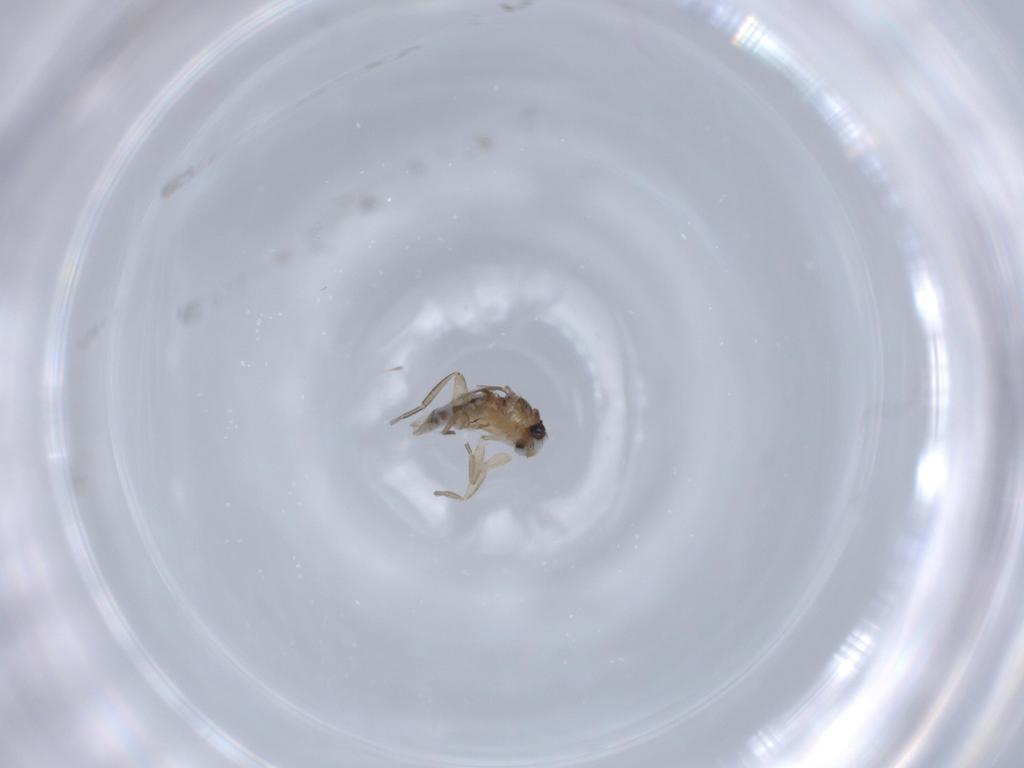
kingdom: Animalia
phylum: Arthropoda
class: Insecta
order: Diptera
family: Phoridae
